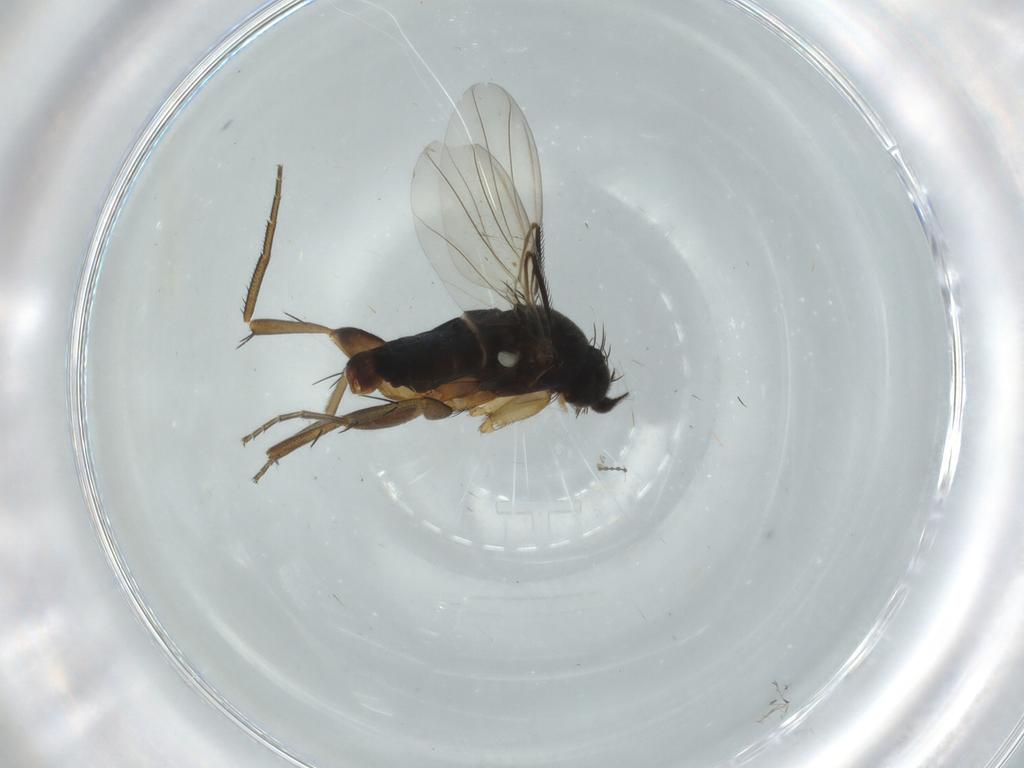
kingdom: Animalia
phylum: Arthropoda
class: Insecta
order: Diptera
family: Phoridae
